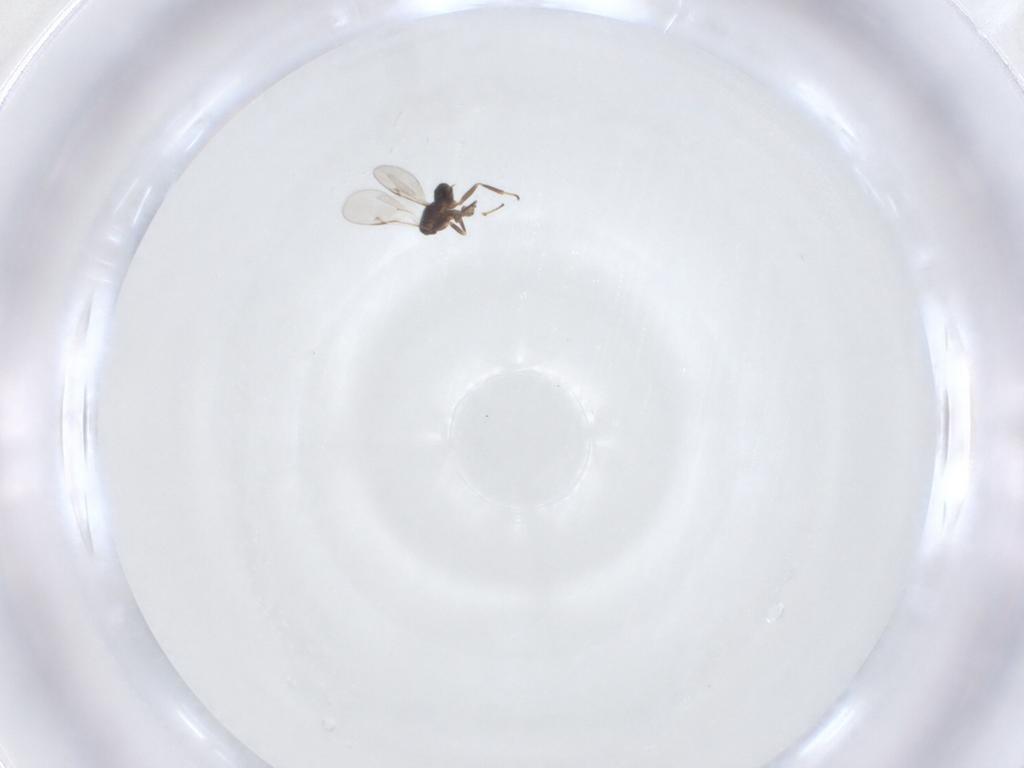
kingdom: Animalia
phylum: Arthropoda
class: Insecta
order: Hymenoptera
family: Encyrtidae
